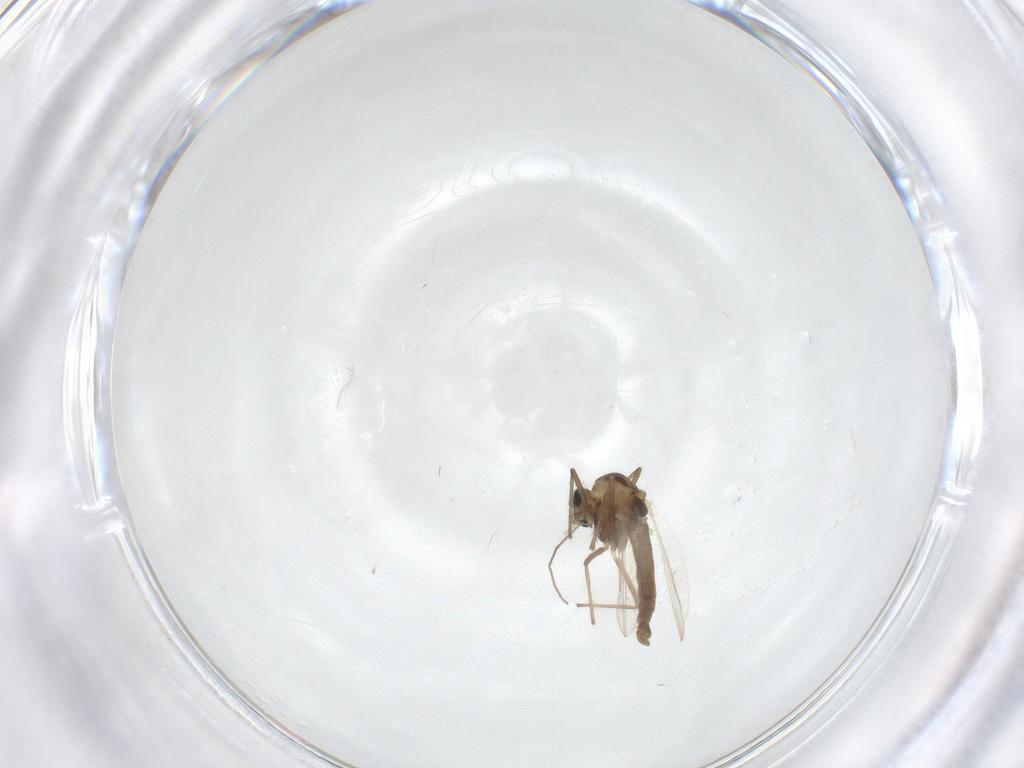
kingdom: Animalia
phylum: Arthropoda
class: Insecta
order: Diptera
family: Chironomidae
